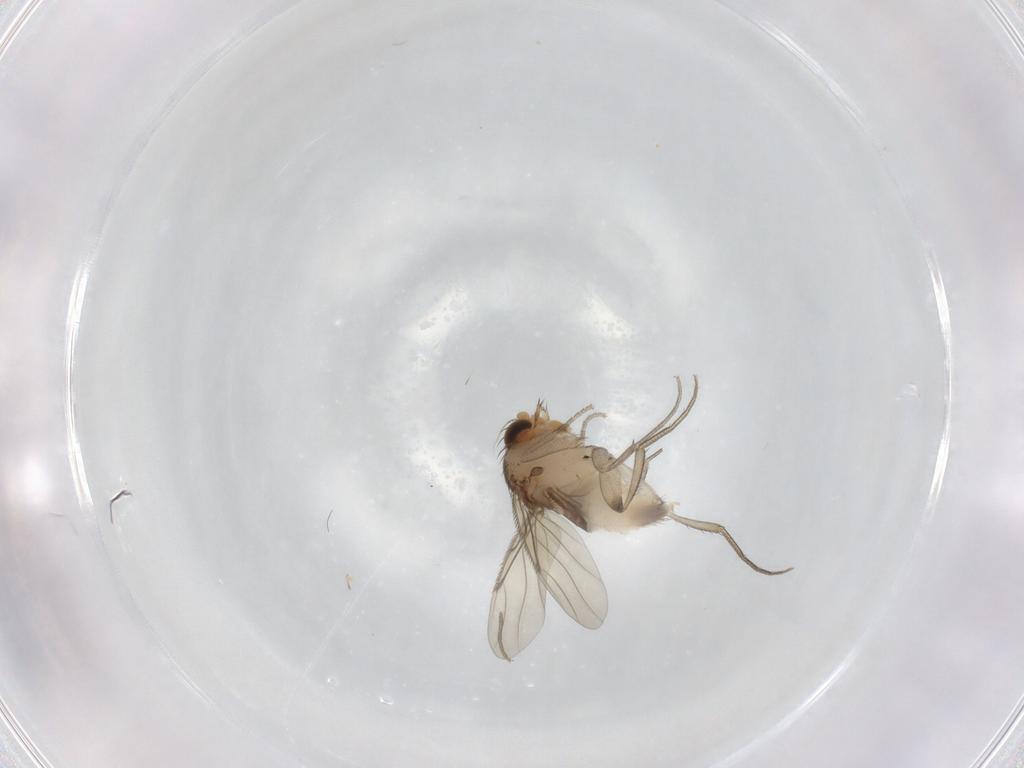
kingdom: Animalia
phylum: Arthropoda
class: Insecta
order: Diptera
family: Phoridae
